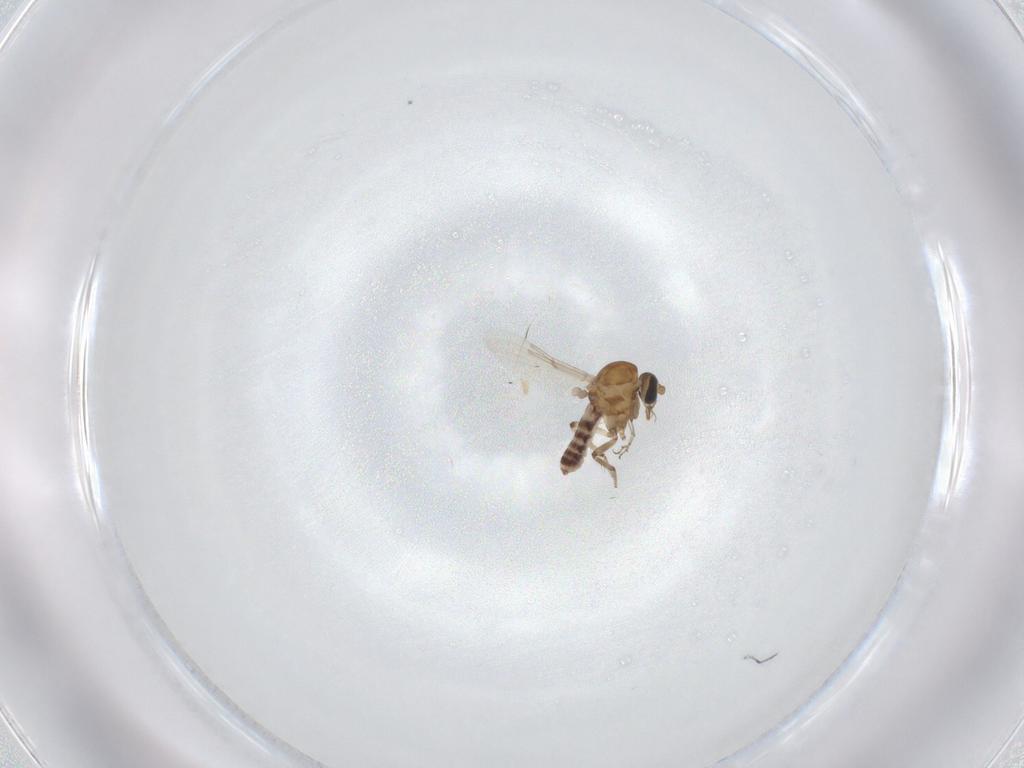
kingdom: Animalia
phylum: Arthropoda
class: Insecta
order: Diptera
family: Ceratopogonidae
